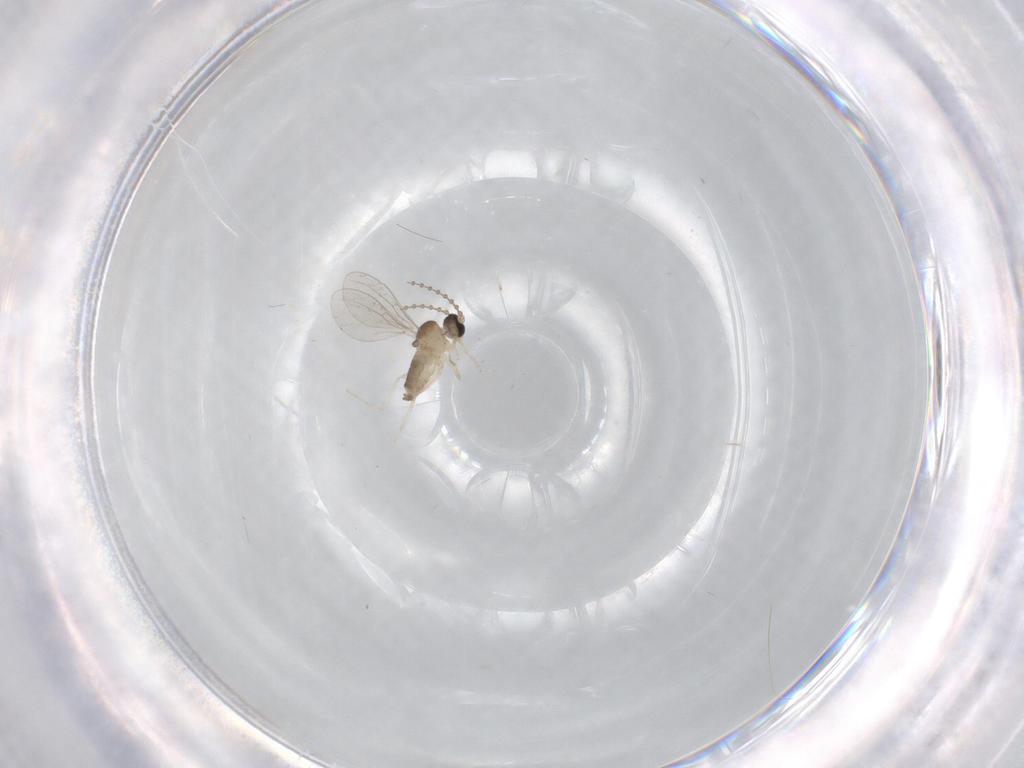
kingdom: Animalia
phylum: Arthropoda
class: Insecta
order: Diptera
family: Cecidomyiidae
